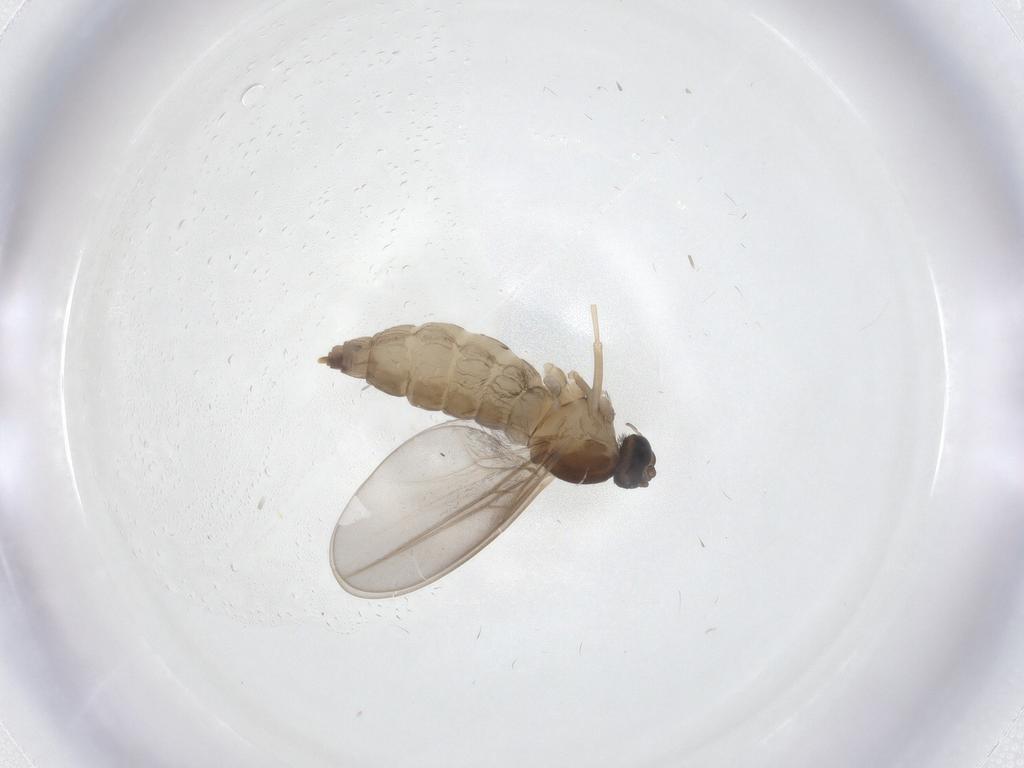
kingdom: Animalia
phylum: Arthropoda
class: Insecta
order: Diptera
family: Cecidomyiidae
